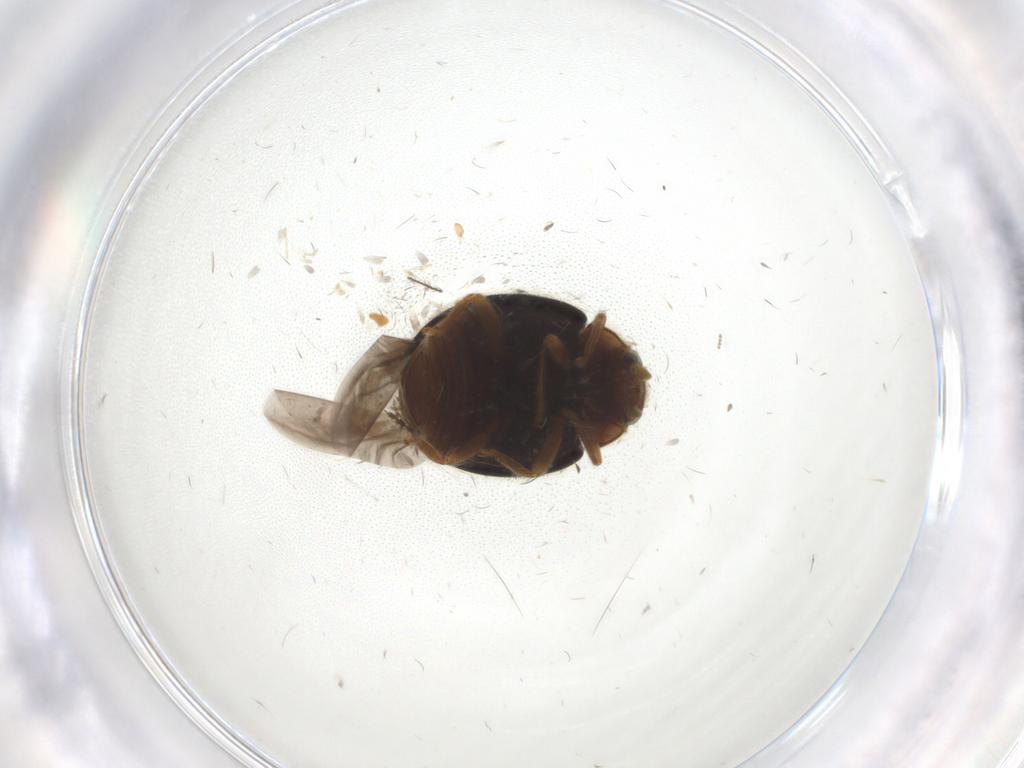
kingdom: Animalia
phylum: Arthropoda
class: Insecta
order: Coleoptera
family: Coccinellidae
